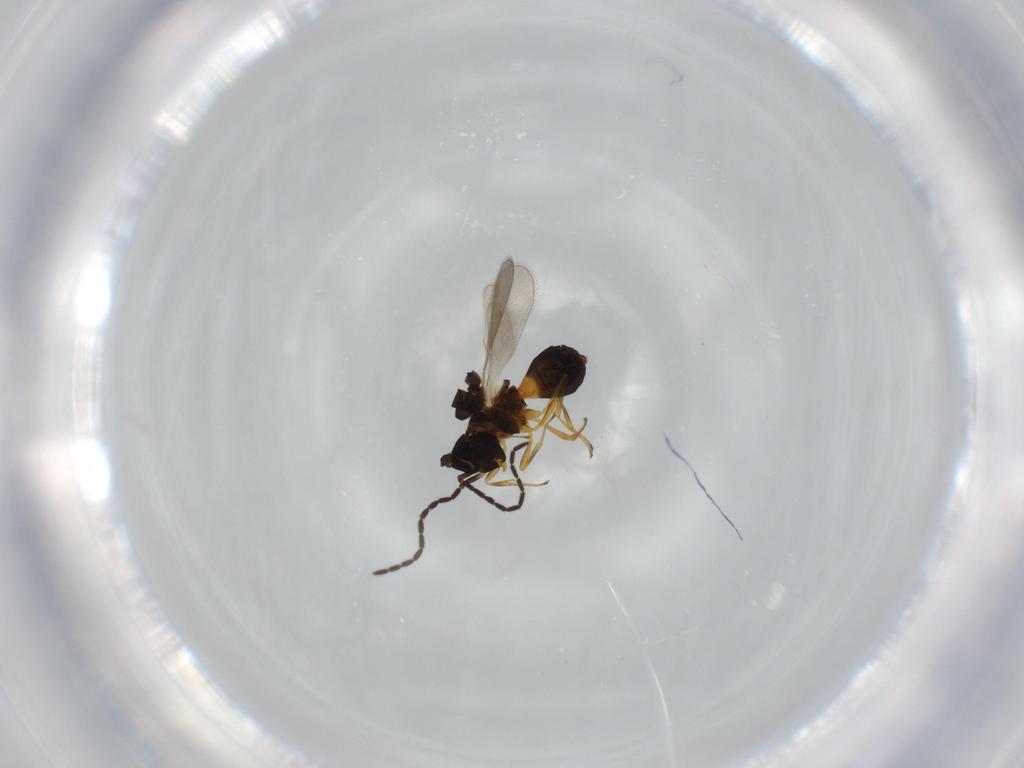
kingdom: Animalia
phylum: Arthropoda
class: Insecta
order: Hymenoptera
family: Scelionidae
